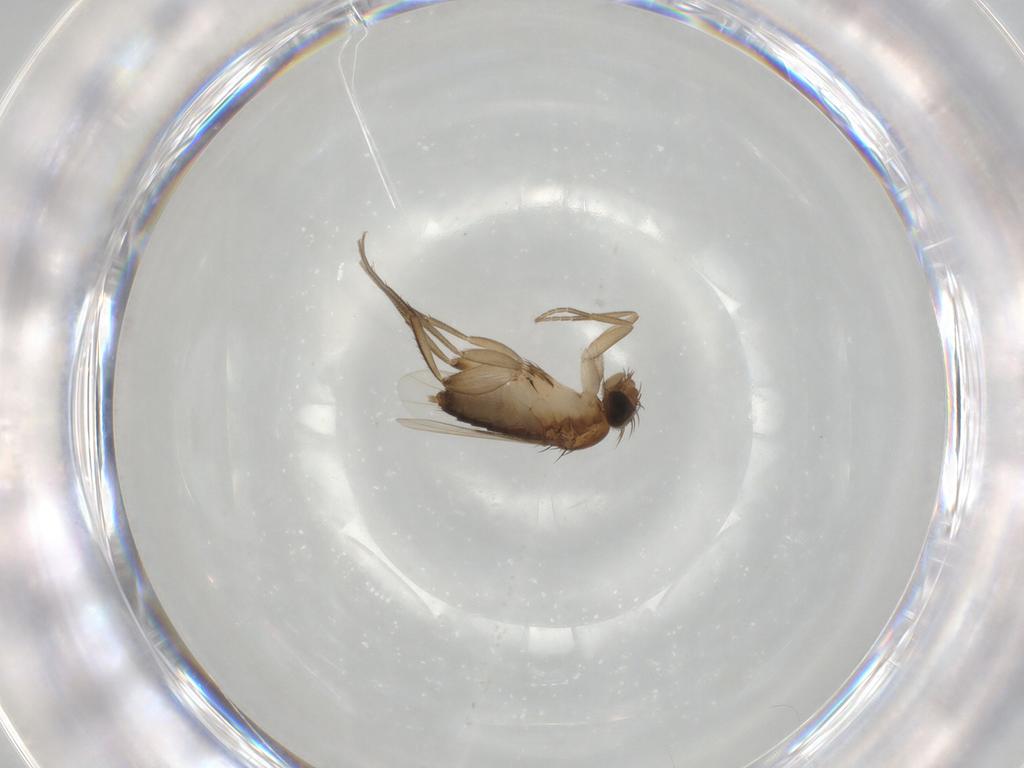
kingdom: Animalia
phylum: Arthropoda
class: Insecta
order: Diptera
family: Phoridae
